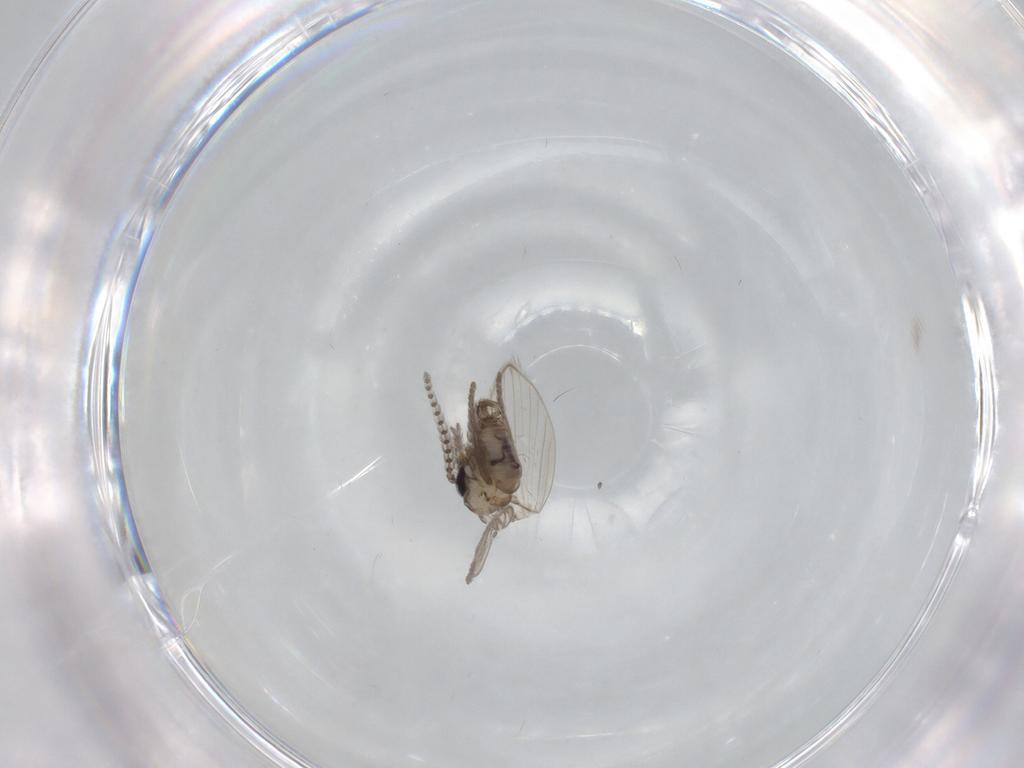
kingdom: Animalia
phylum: Arthropoda
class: Insecta
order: Diptera
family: Psychodidae
